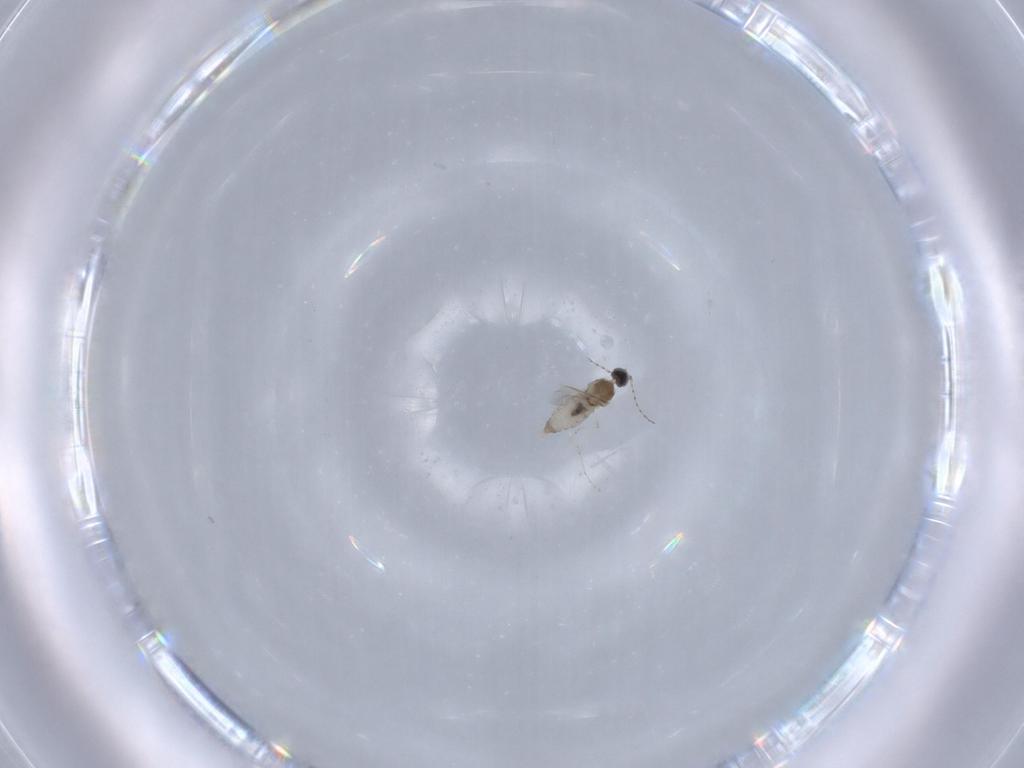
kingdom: Animalia
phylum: Arthropoda
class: Insecta
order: Diptera
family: Cecidomyiidae
